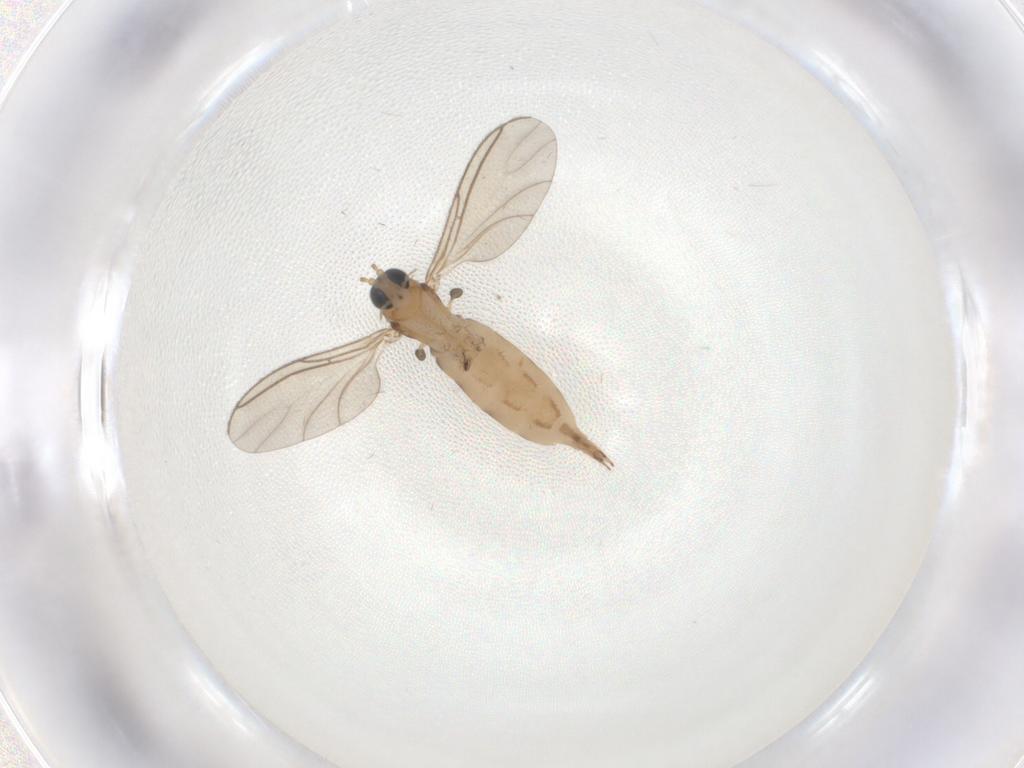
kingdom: Animalia
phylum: Arthropoda
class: Insecta
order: Diptera
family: Sciaridae
